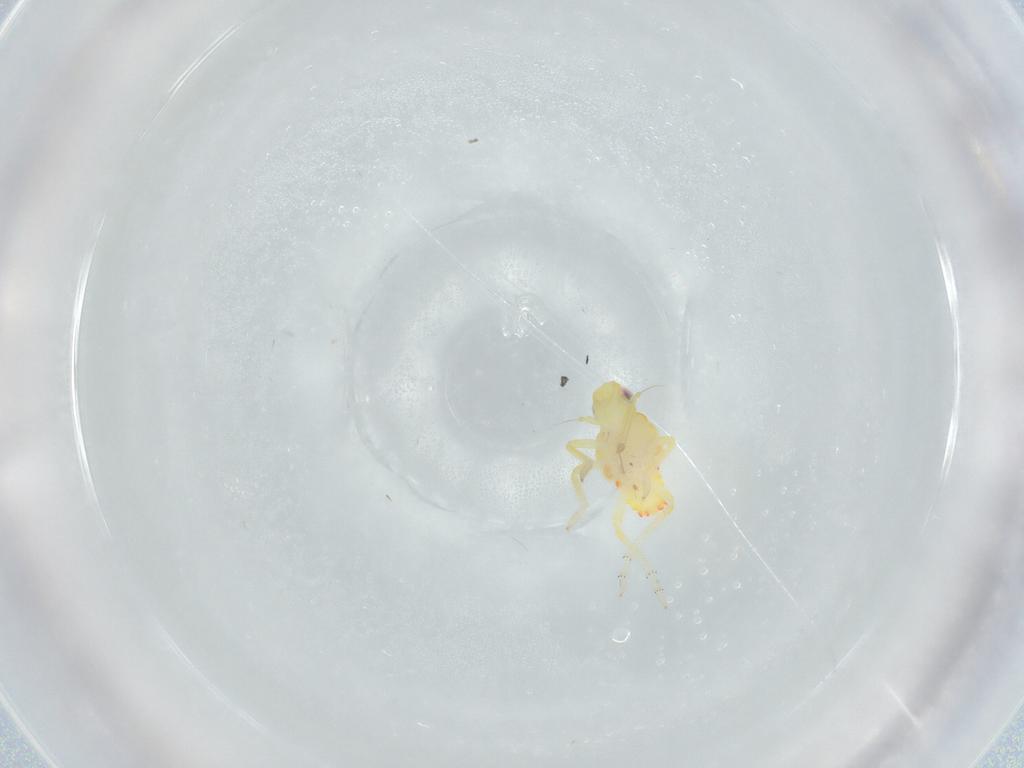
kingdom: Animalia
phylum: Arthropoda
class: Insecta
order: Hemiptera
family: Tropiduchidae
